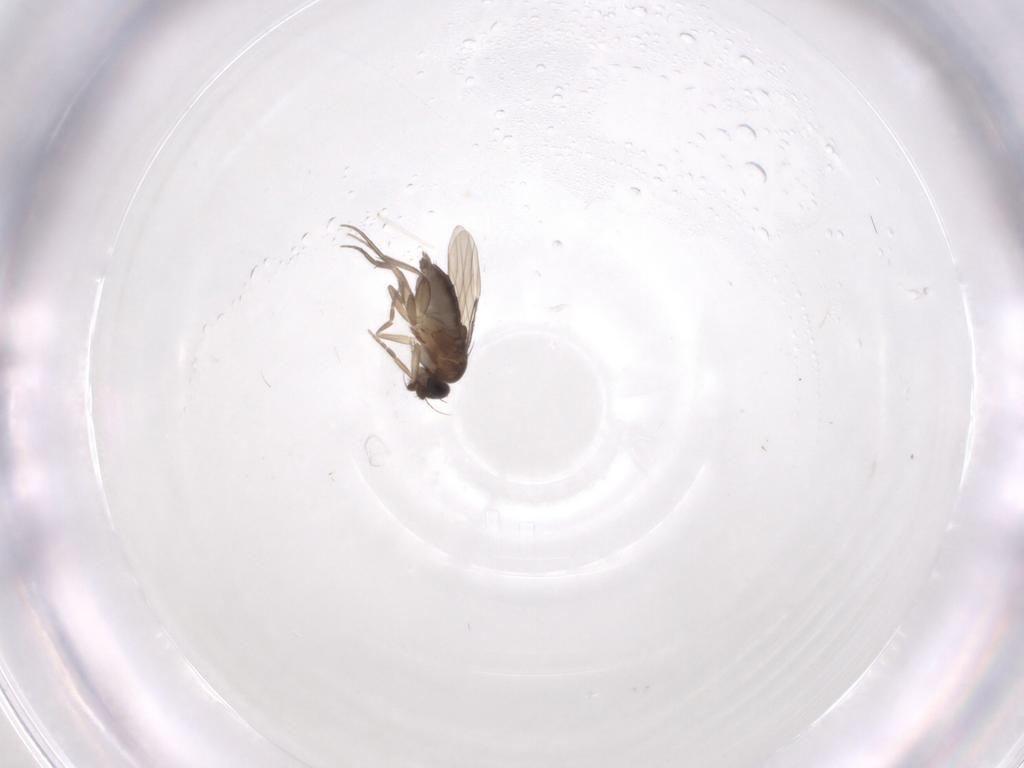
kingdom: Animalia
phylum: Arthropoda
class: Insecta
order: Diptera
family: Phoridae
